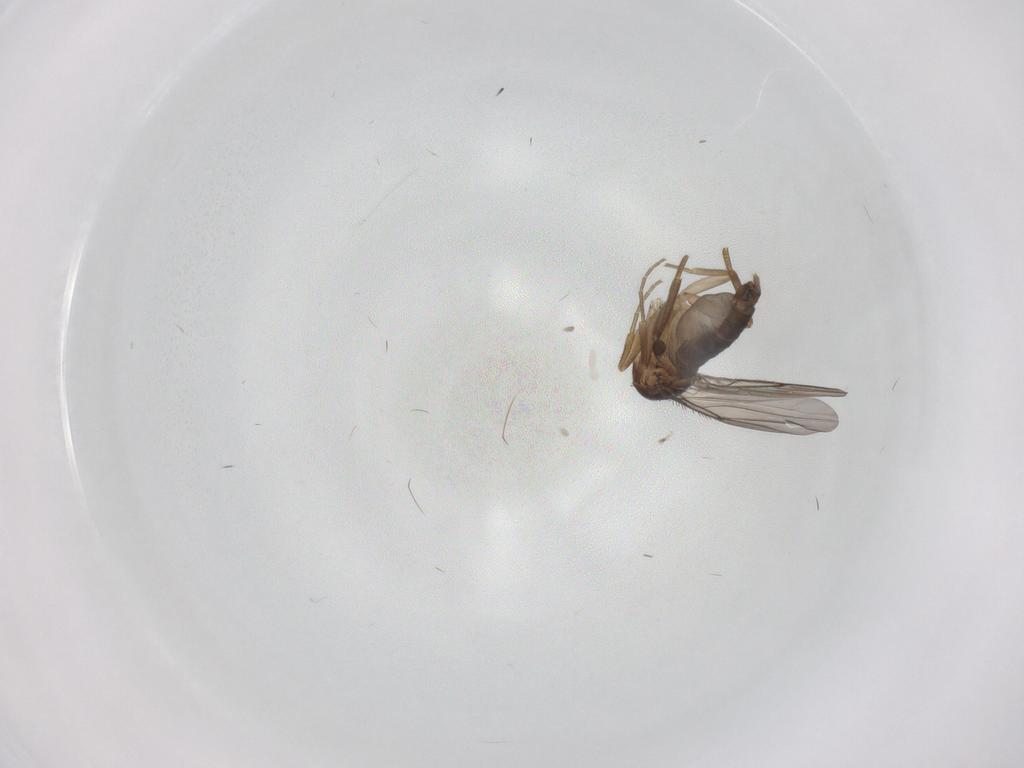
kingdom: Animalia
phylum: Arthropoda
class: Insecta
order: Diptera
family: Phoridae
